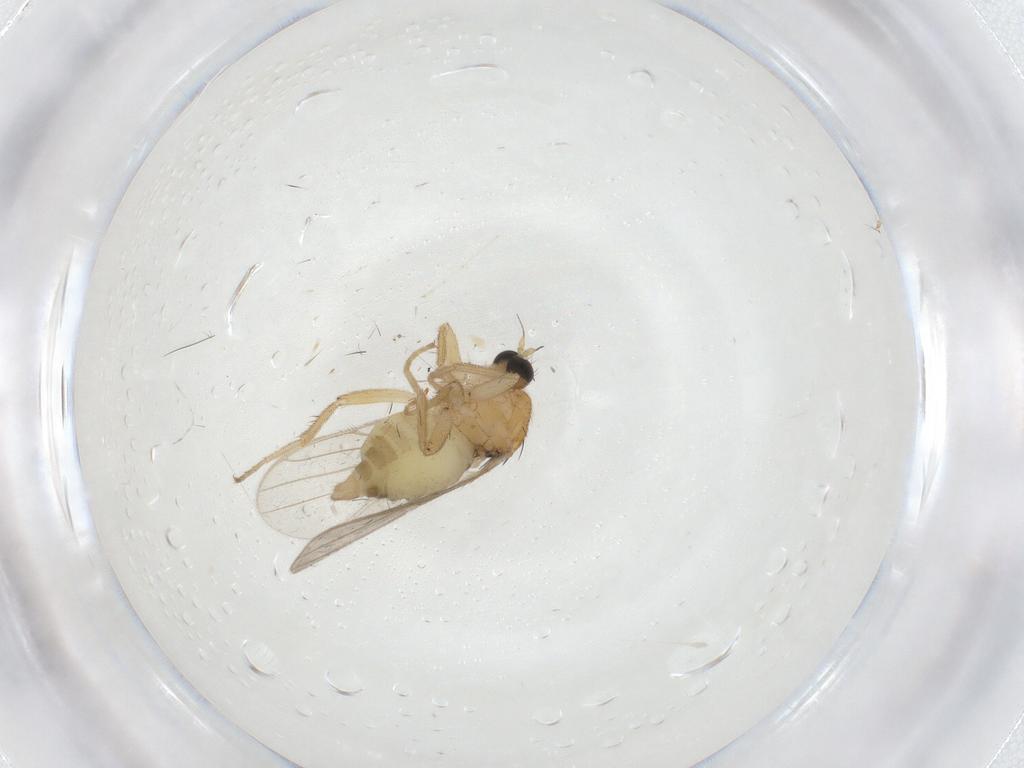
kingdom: Animalia
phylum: Arthropoda
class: Insecta
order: Diptera
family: Hybotidae
